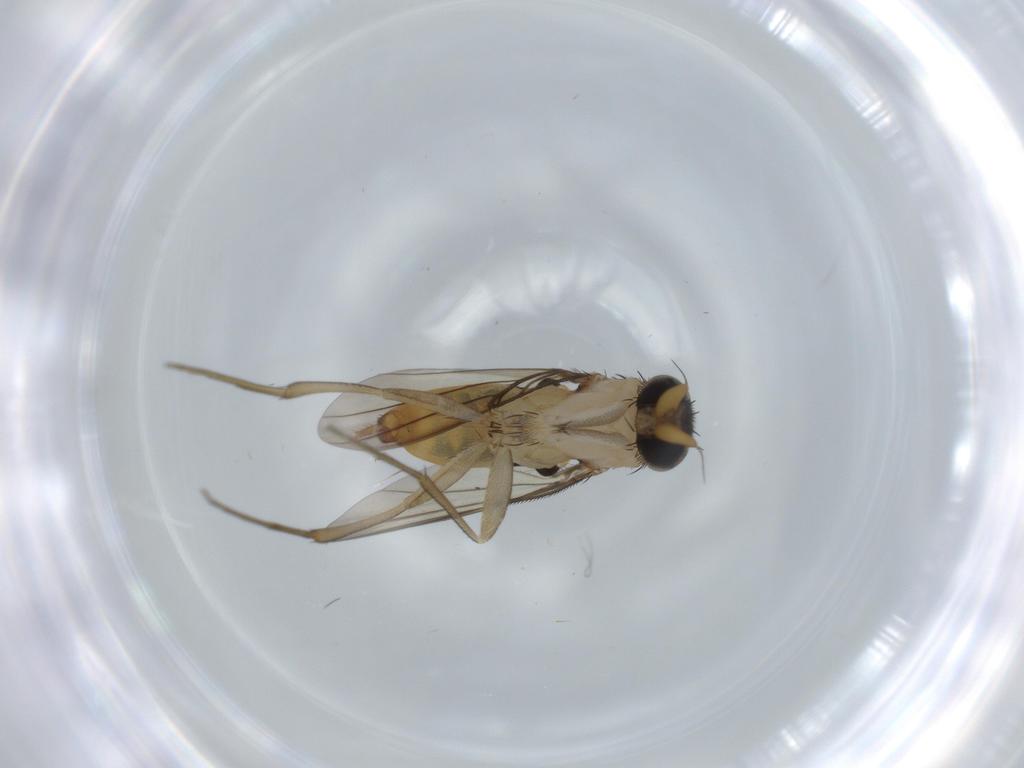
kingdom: Animalia
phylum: Arthropoda
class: Insecta
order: Diptera
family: Phoridae
